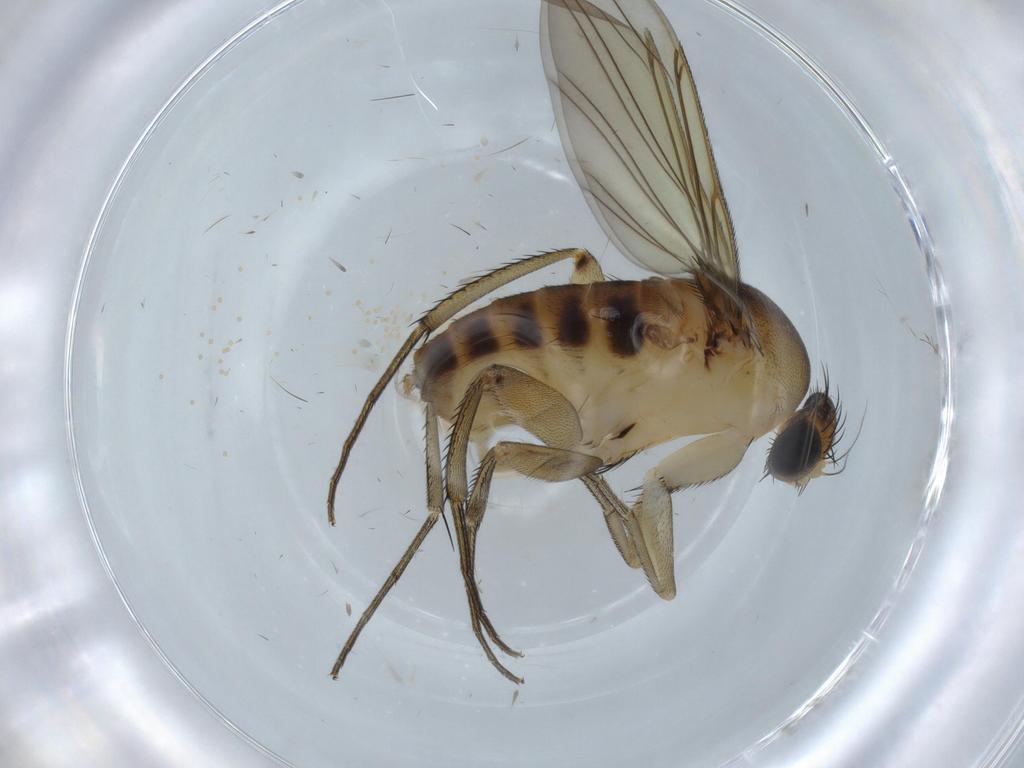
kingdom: Animalia
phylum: Arthropoda
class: Insecta
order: Diptera
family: Phoridae
